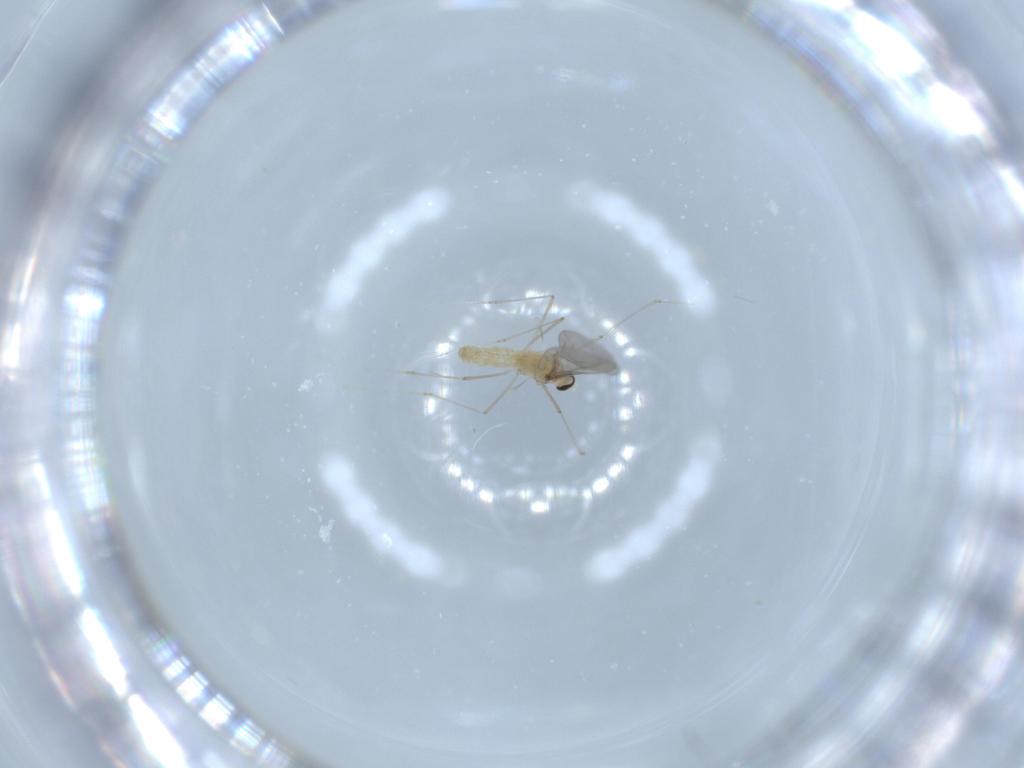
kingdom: Animalia
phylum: Arthropoda
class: Insecta
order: Diptera
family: Cecidomyiidae
